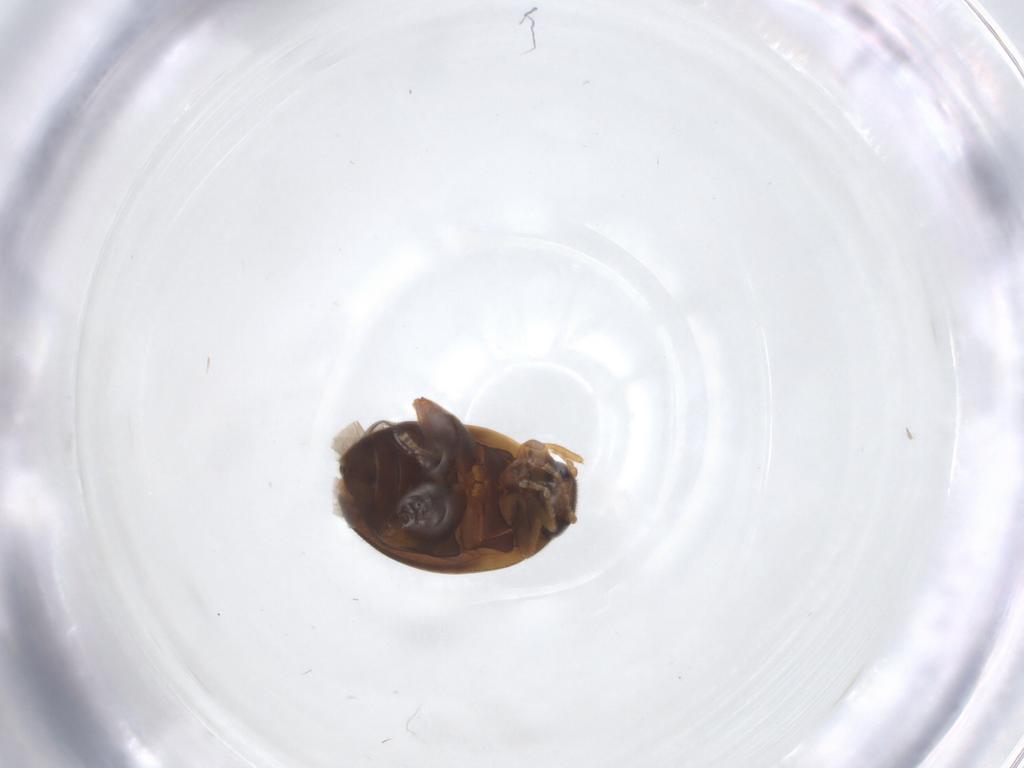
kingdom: Animalia
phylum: Arthropoda
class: Insecta
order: Diptera
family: Phoridae
